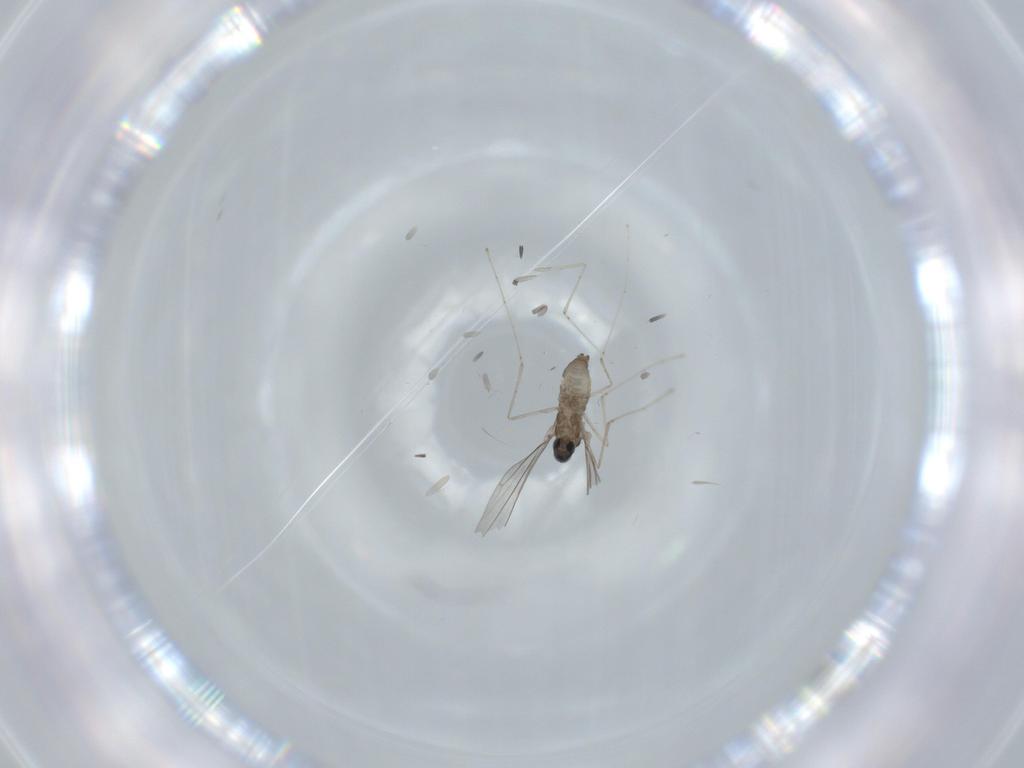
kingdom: Animalia
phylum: Arthropoda
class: Insecta
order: Diptera
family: Cecidomyiidae
